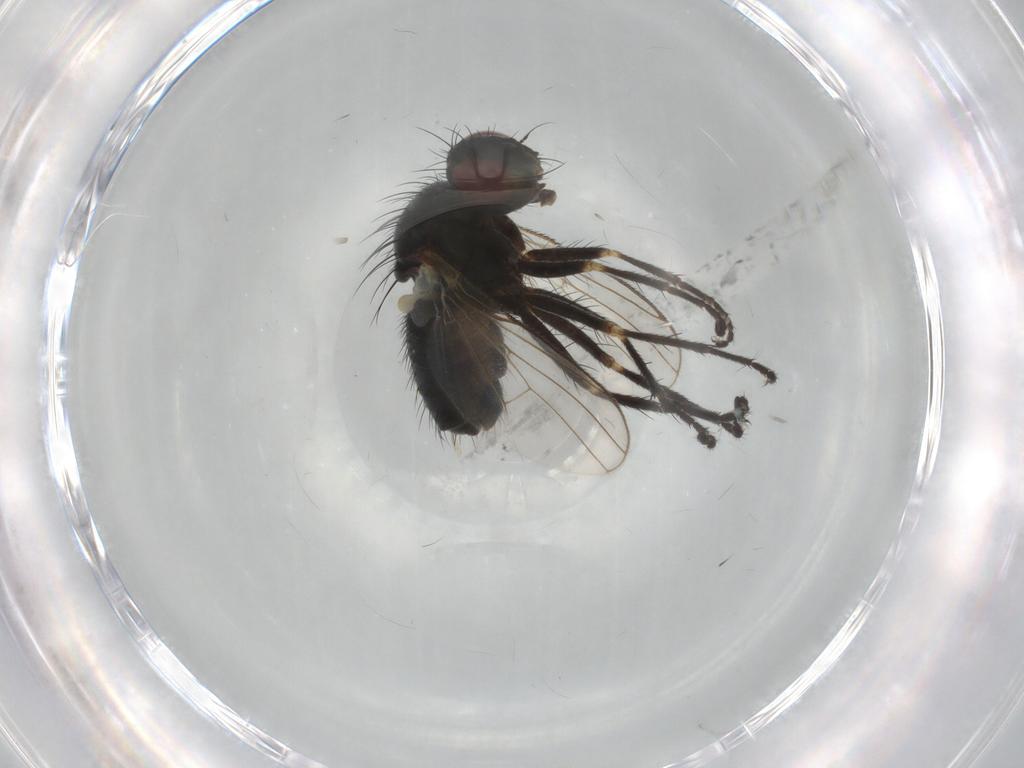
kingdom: Animalia
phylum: Arthropoda
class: Insecta
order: Diptera
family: Muscidae
